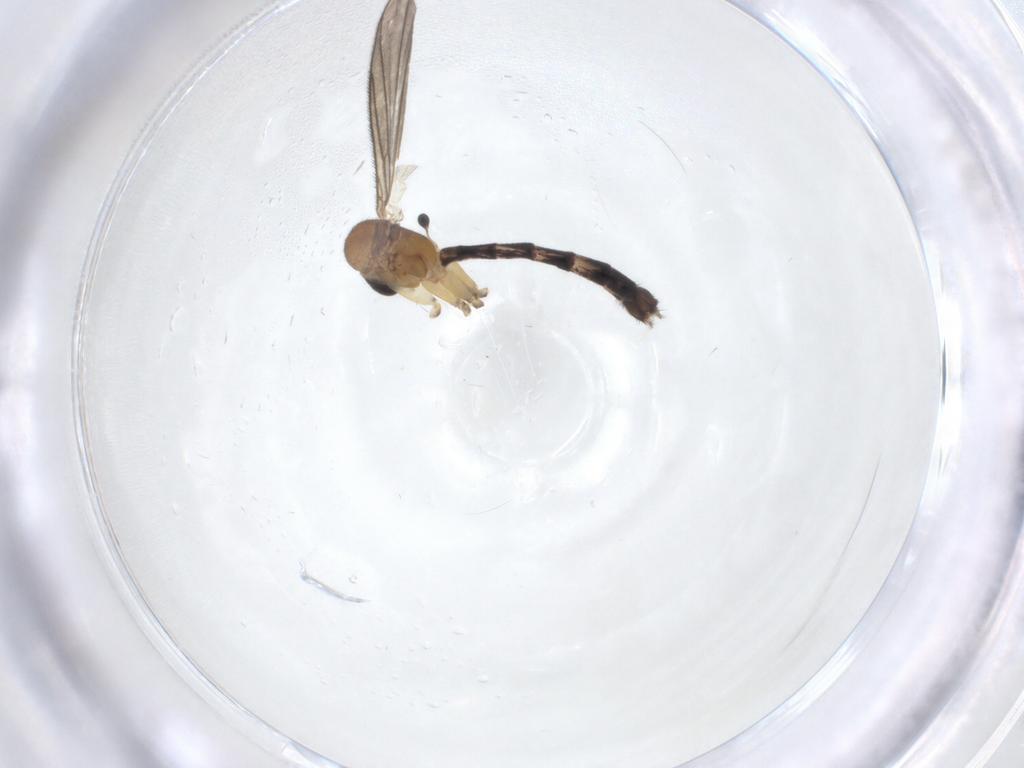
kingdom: Animalia
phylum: Arthropoda
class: Insecta
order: Diptera
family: Mycetophilidae
